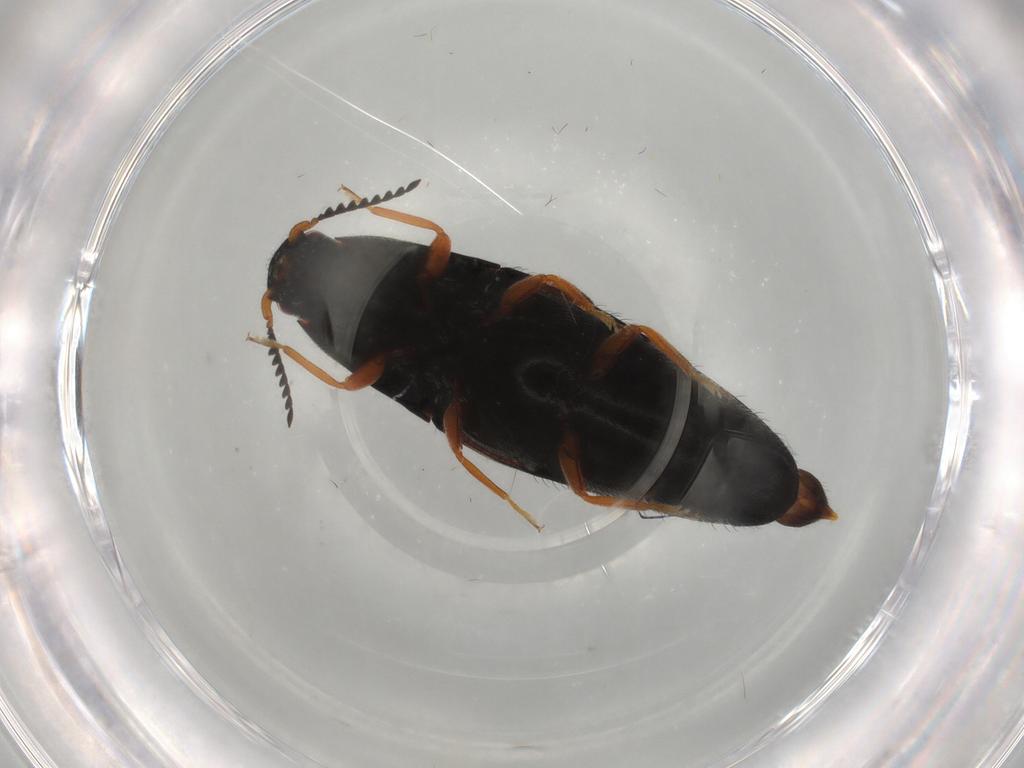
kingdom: Animalia
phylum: Arthropoda
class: Insecta
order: Coleoptera
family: Elateridae
